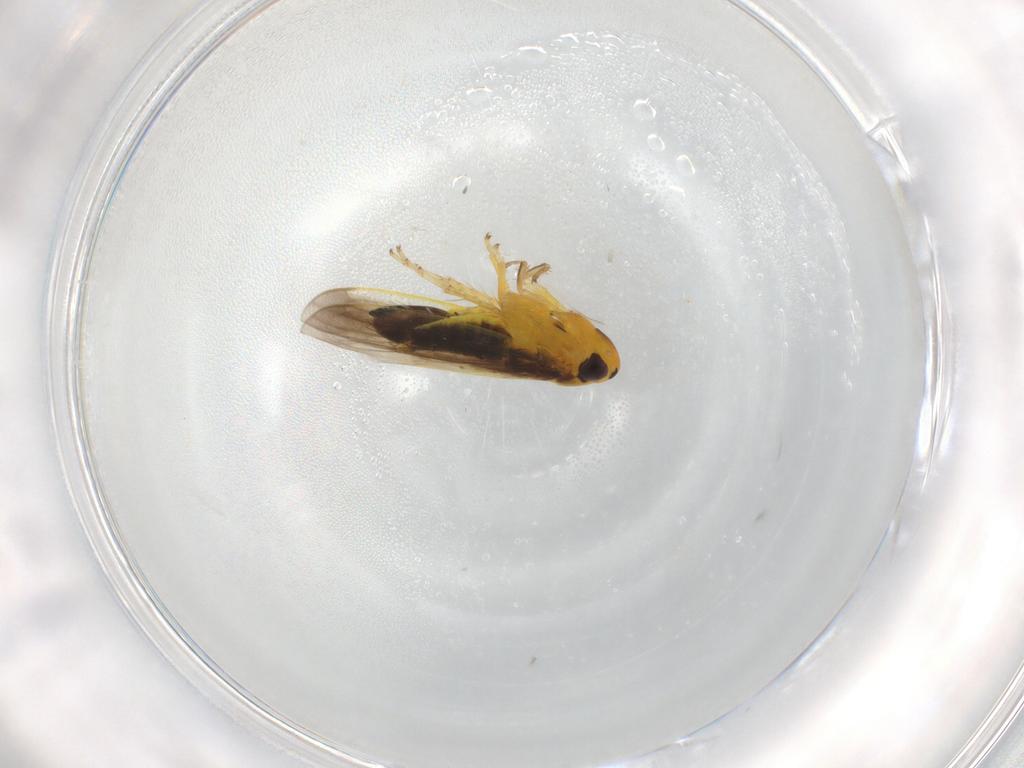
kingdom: Animalia
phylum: Arthropoda
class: Insecta
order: Hemiptera
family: Cicadellidae
